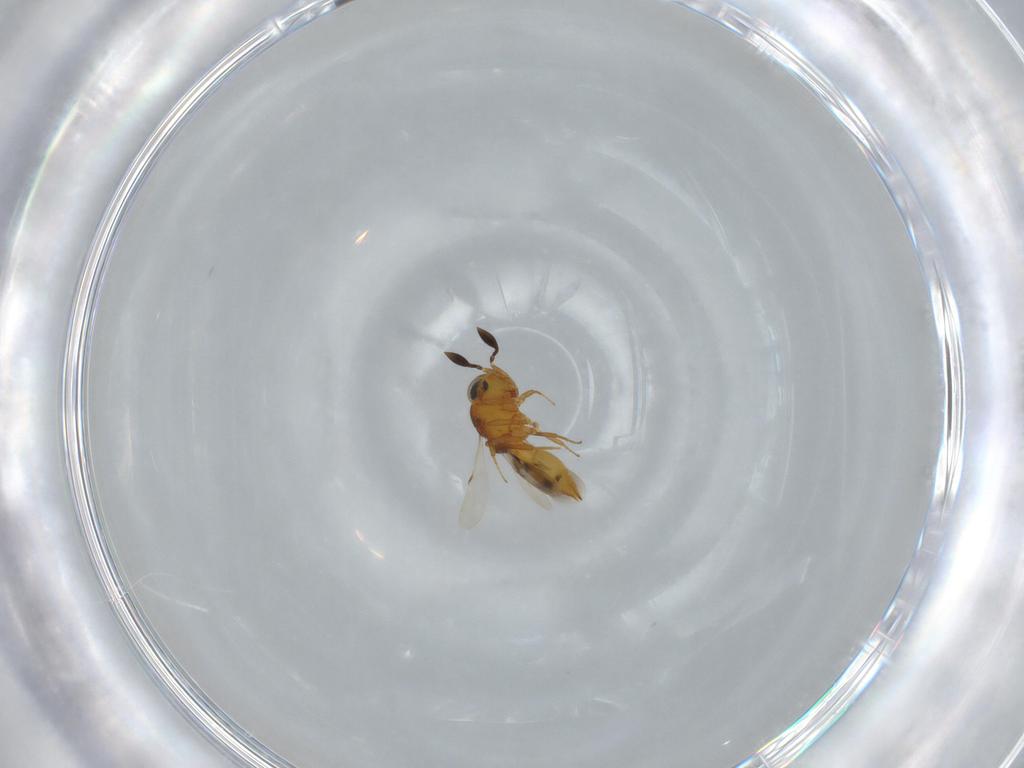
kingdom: Animalia
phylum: Arthropoda
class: Insecta
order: Hymenoptera
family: Scelionidae
